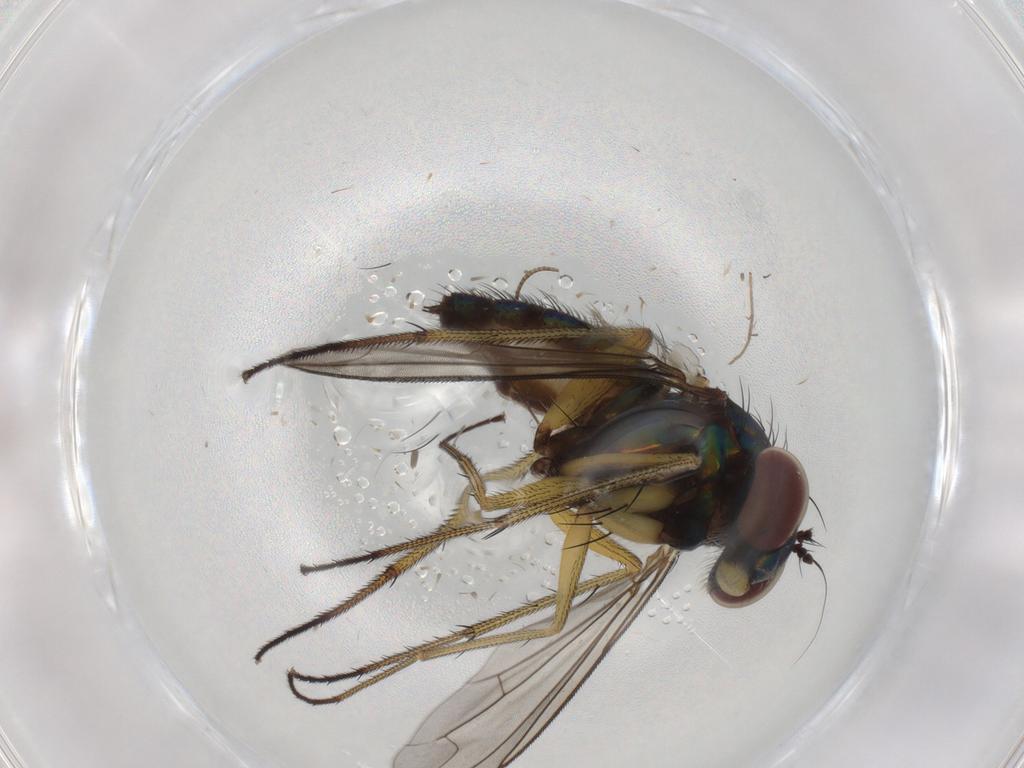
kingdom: Animalia
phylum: Arthropoda
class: Insecta
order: Diptera
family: Dolichopodidae
